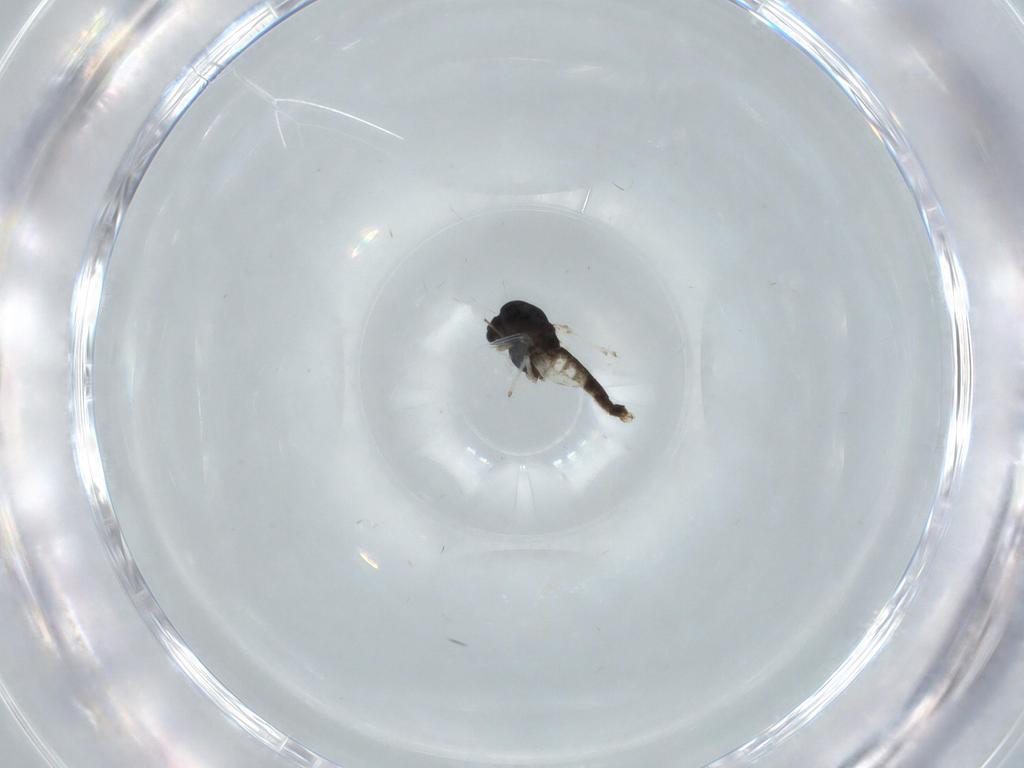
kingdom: Animalia
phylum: Arthropoda
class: Insecta
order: Diptera
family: Chironomidae
